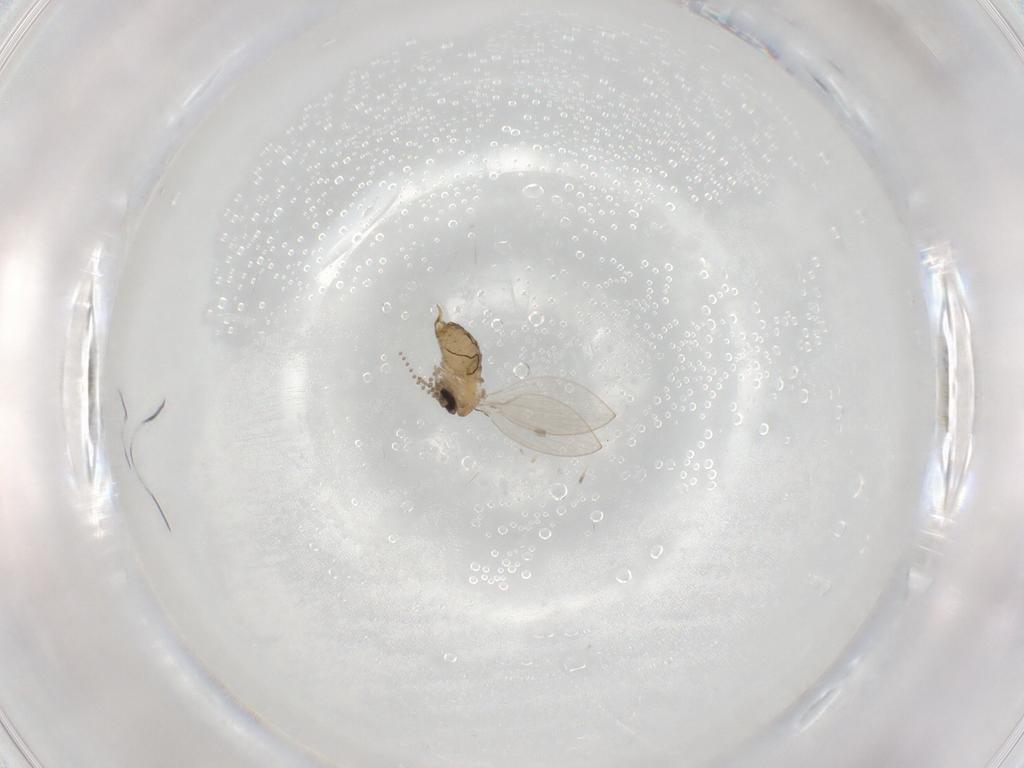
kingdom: Animalia
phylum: Arthropoda
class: Insecta
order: Diptera
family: Psychodidae
